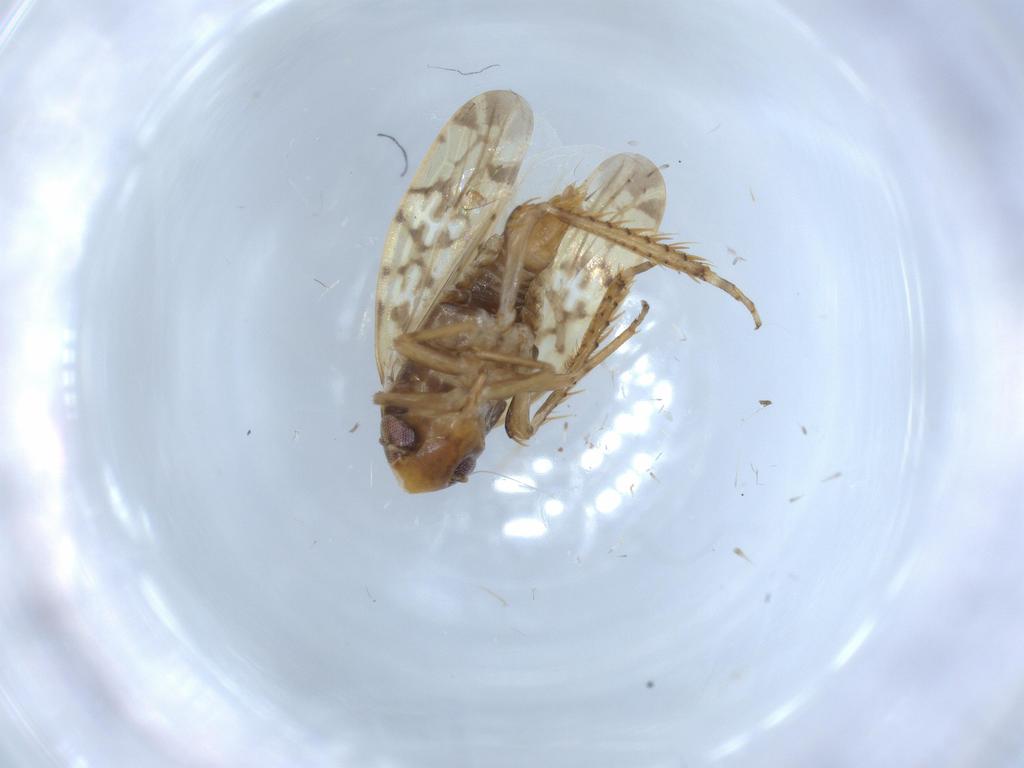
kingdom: Animalia
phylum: Arthropoda
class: Insecta
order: Hemiptera
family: Cicadellidae
